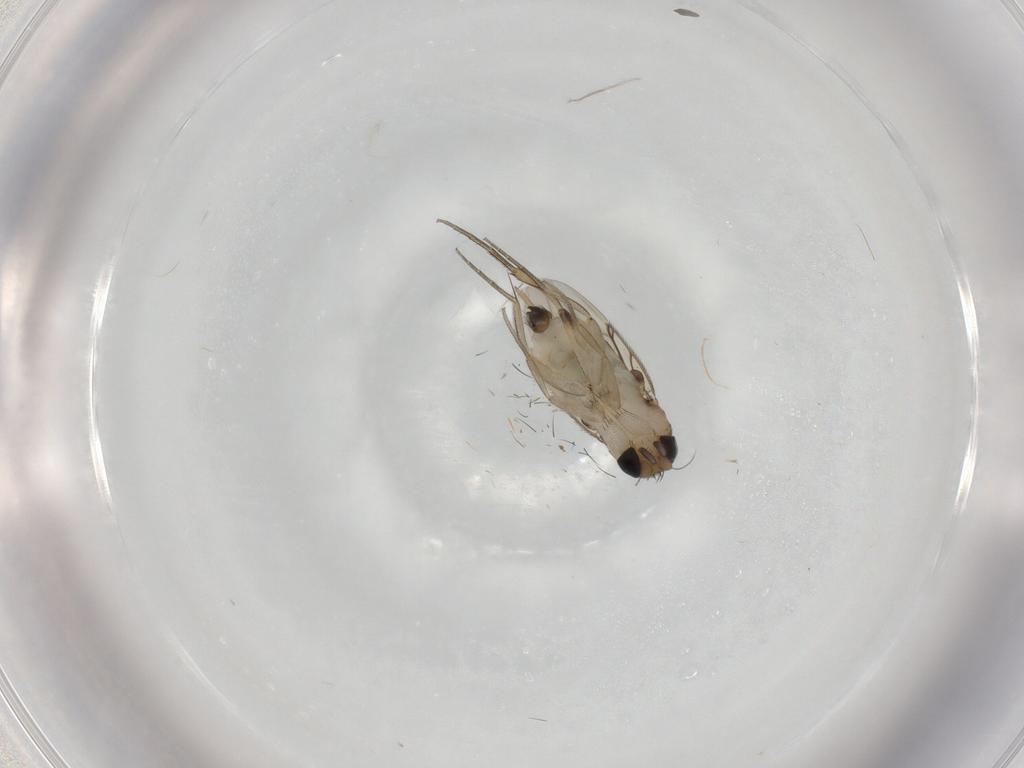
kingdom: Animalia
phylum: Arthropoda
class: Insecta
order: Diptera
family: Phoridae
